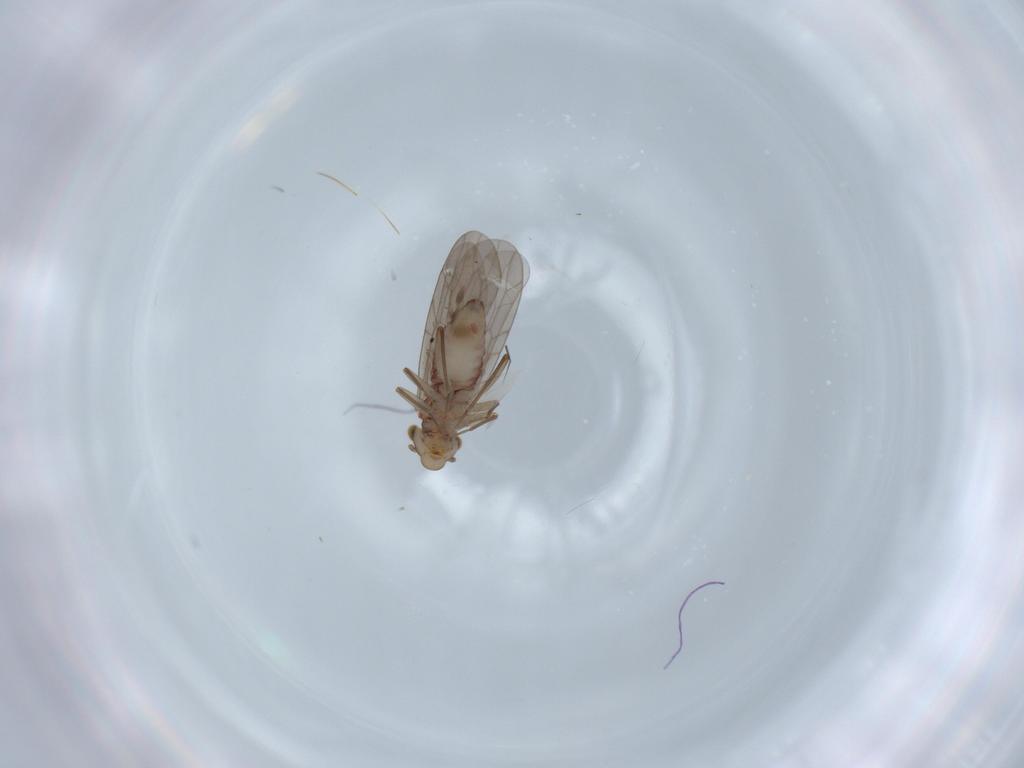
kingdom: Animalia
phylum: Arthropoda
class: Insecta
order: Psocodea
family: Lepidopsocidae
